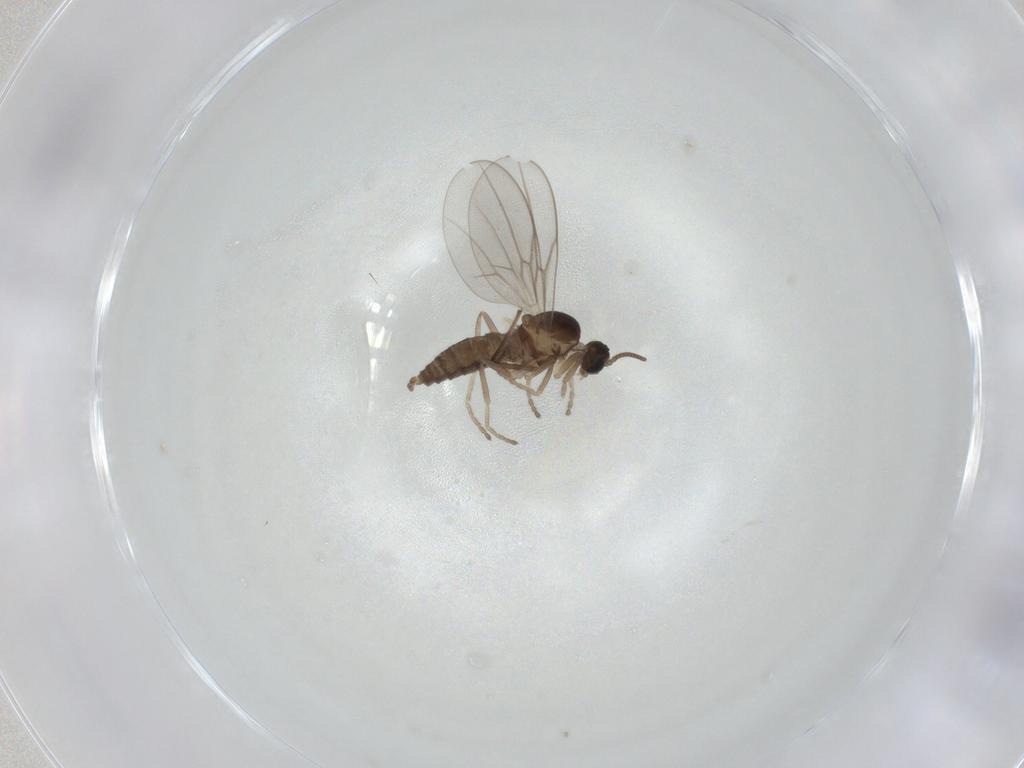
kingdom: Animalia
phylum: Arthropoda
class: Insecta
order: Diptera
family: Cecidomyiidae
